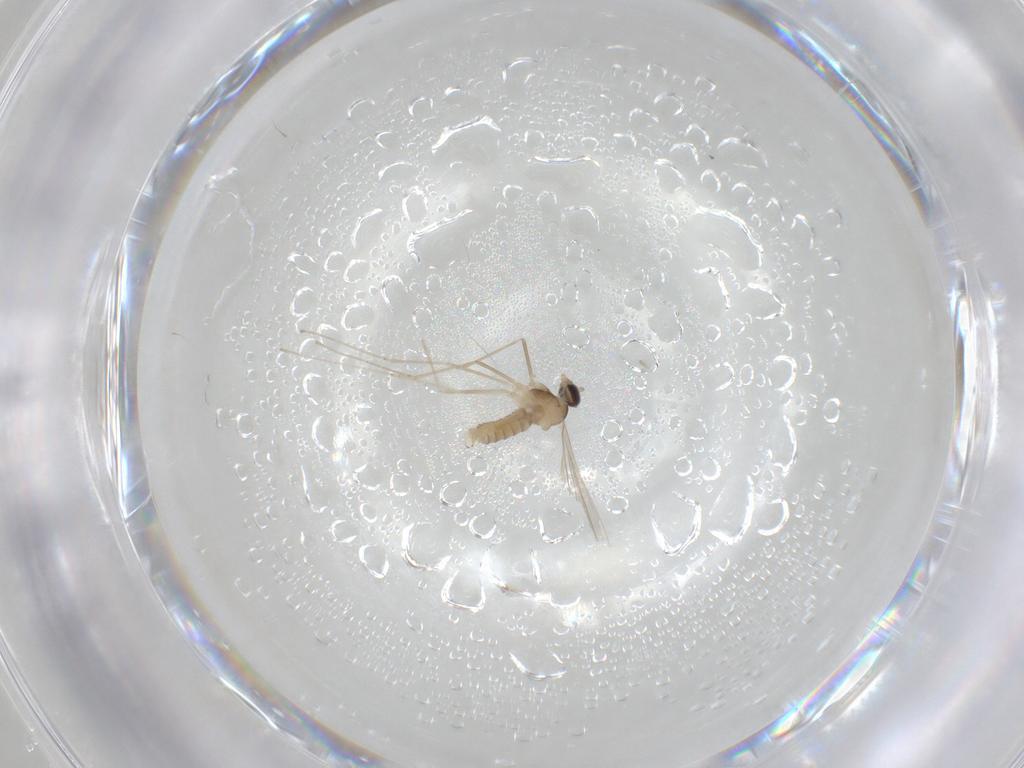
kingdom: Animalia
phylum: Arthropoda
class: Insecta
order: Diptera
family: Cecidomyiidae
